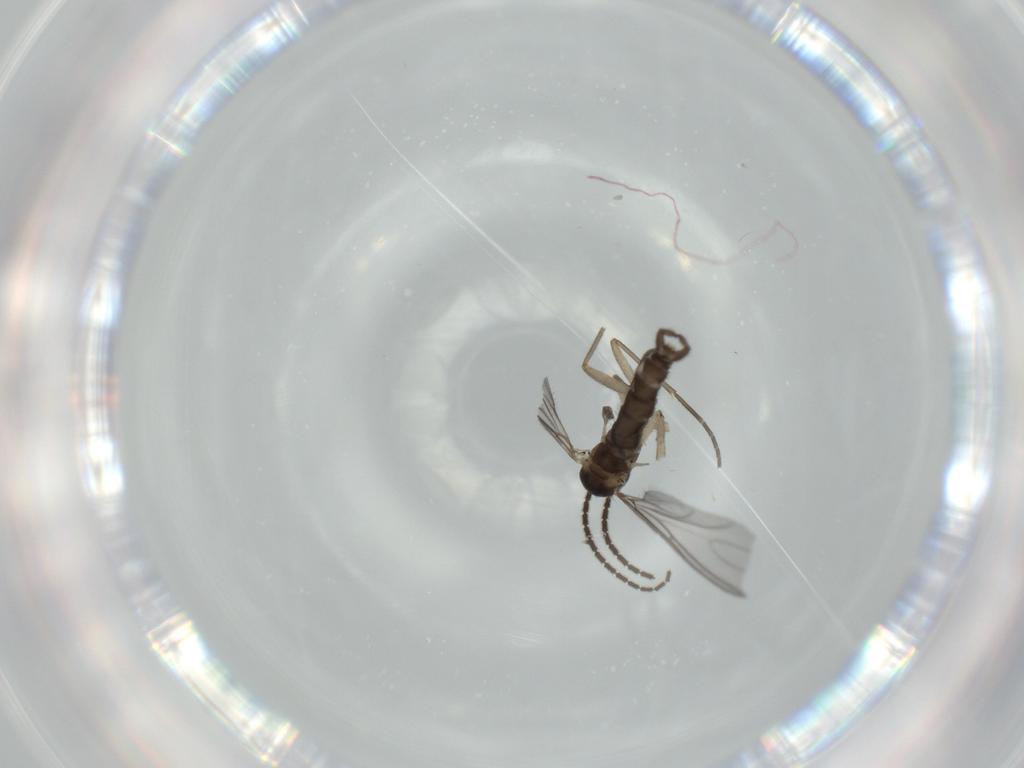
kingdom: Animalia
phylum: Arthropoda
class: Insecta
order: Diptera
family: Sciaridae
